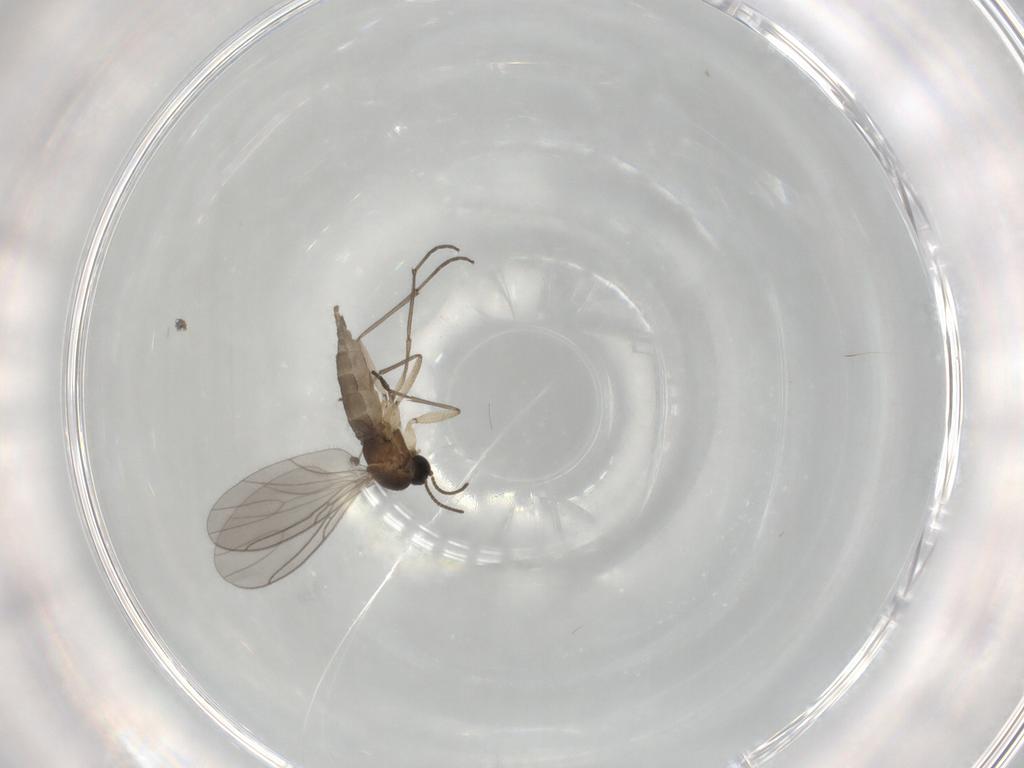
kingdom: Animalia
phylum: Arthropoda
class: Insecta
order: Diptera
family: Sciaridae
